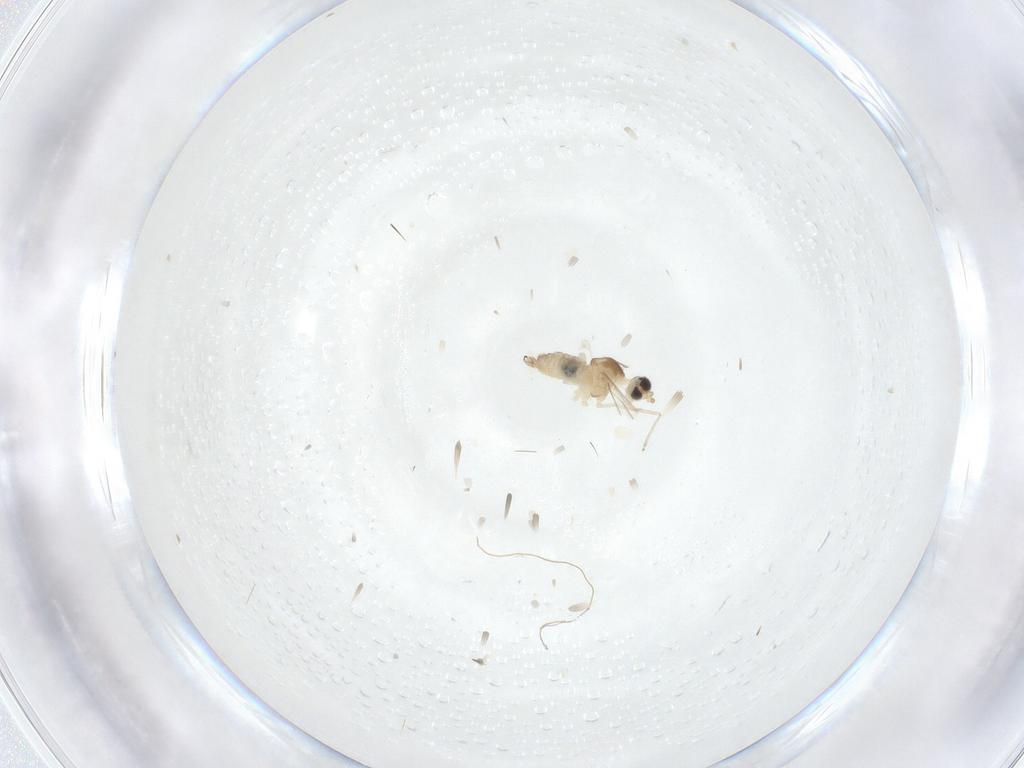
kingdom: Animalia
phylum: Arthropoda
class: Insecta
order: Diptera
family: Cecidomyiidae
